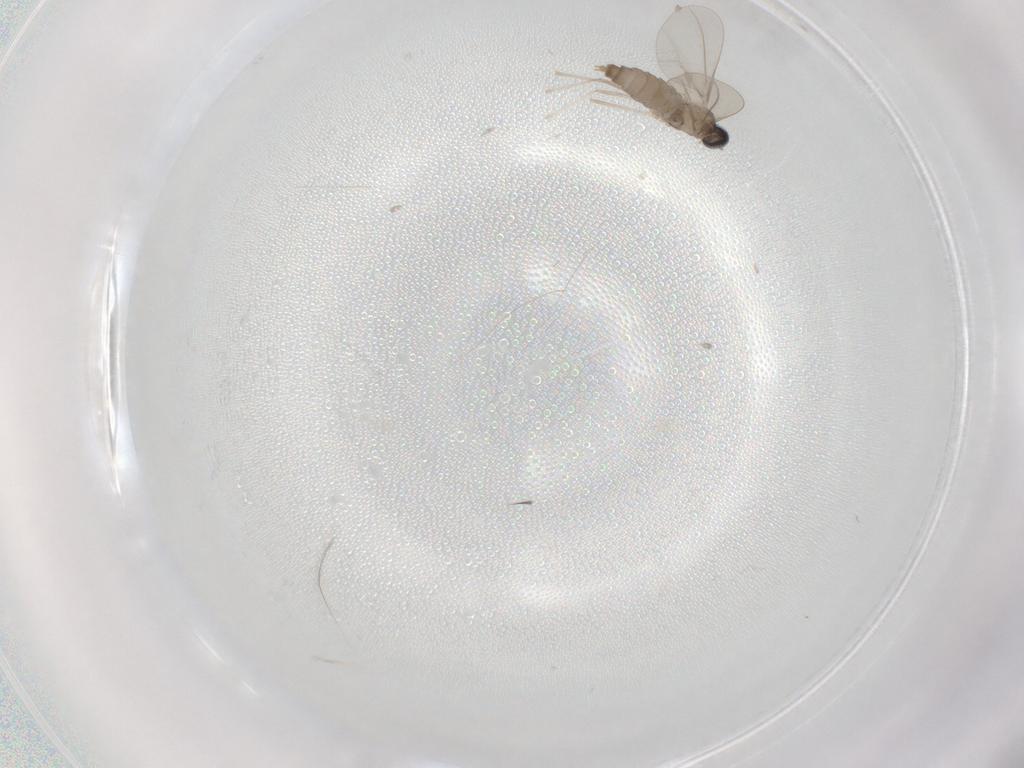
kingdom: Animalia
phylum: Arthropoda
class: Insecta
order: Diptera
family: Cecidomyiidae
